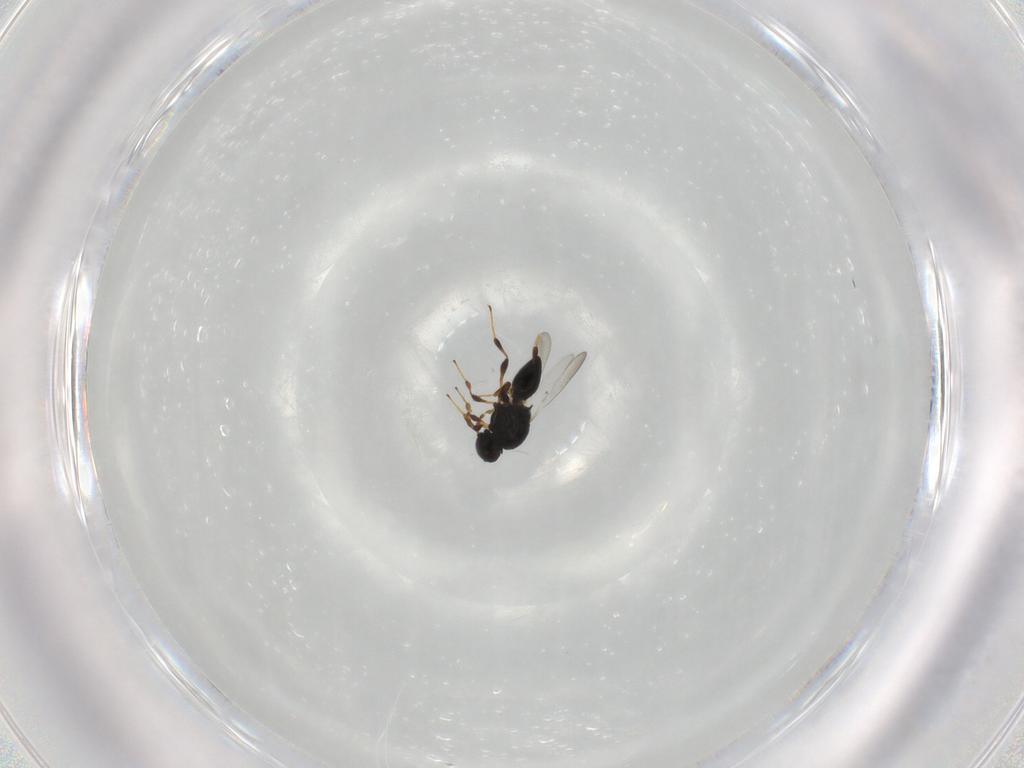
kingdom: Animalia
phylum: Arthropoda
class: Insecta
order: Hymenoptera
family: Platygastridae
